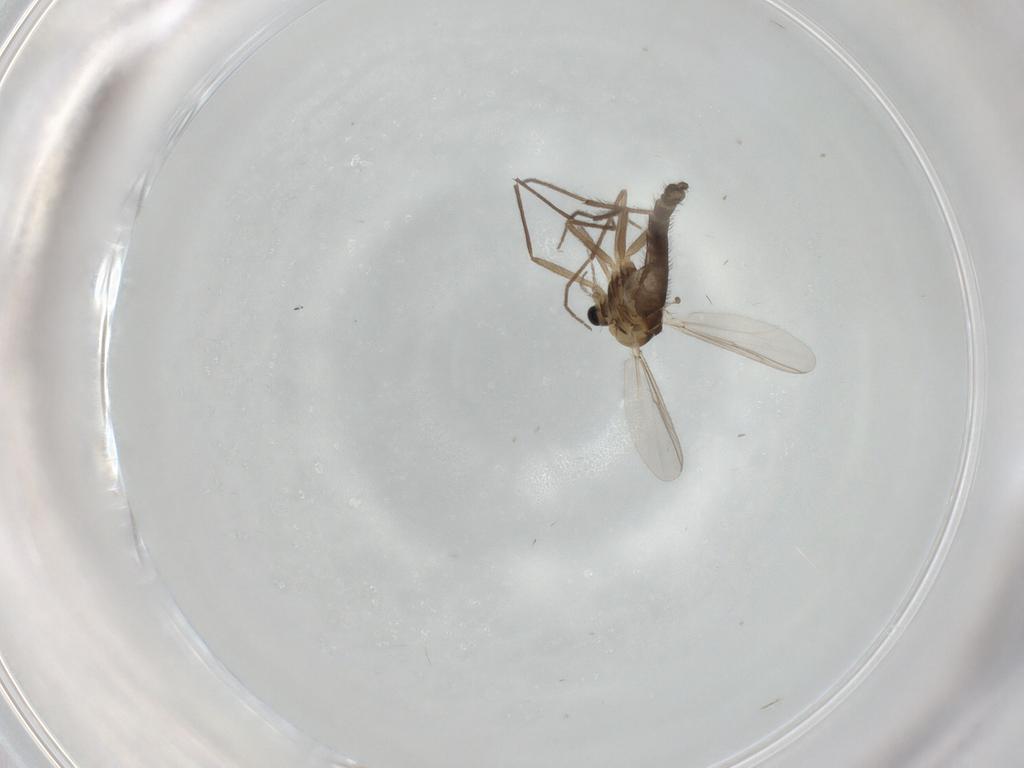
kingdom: Animalia
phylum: Arthropoda
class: Insecta
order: Diptera
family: Chironomidae
